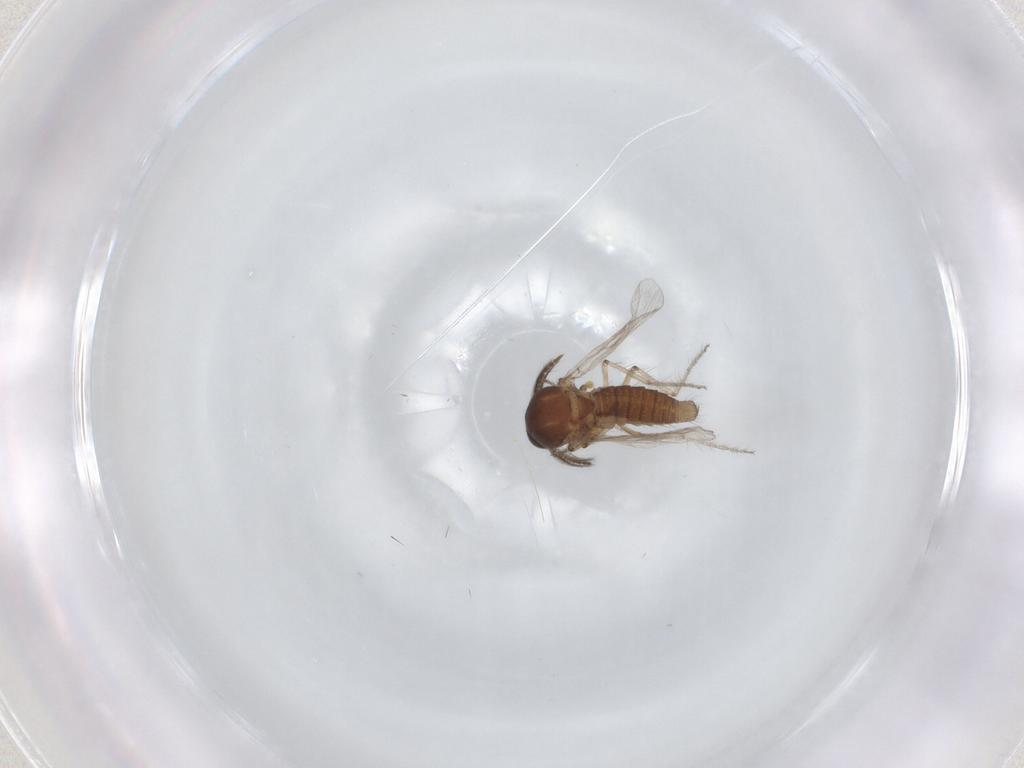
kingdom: Animalia
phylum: Arthropoda
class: Insecta
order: Diptera
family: Ceratopogonidae
